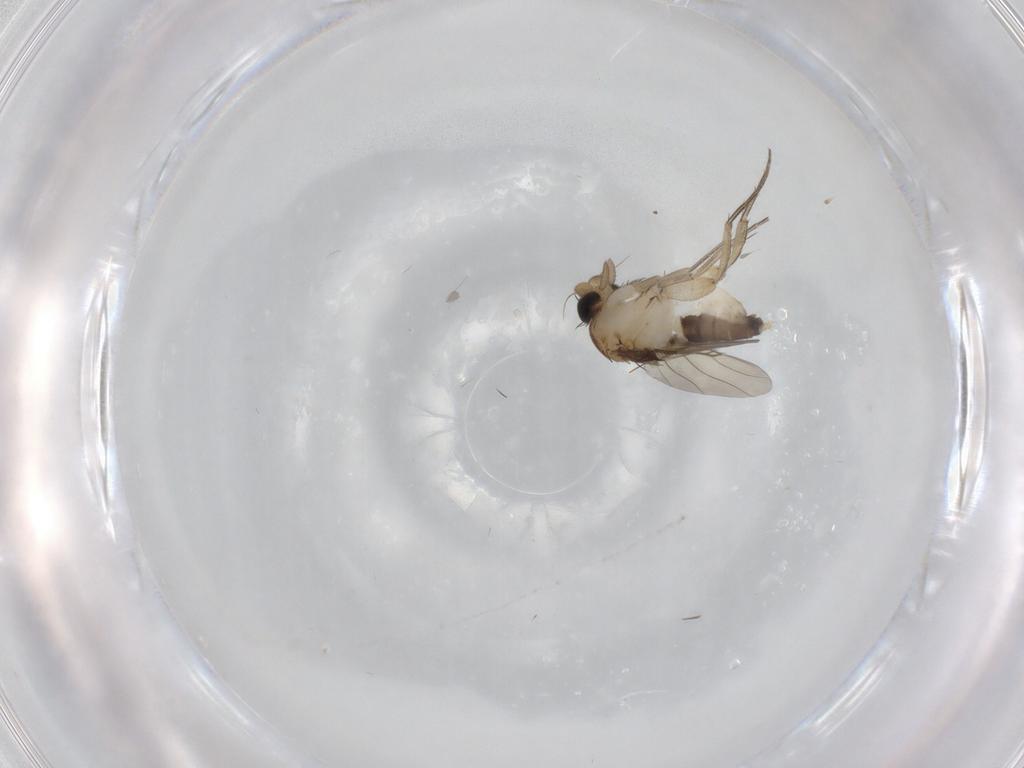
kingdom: Animalia
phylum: Arthropoda
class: Insecta
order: Diptera
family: Phoridae
